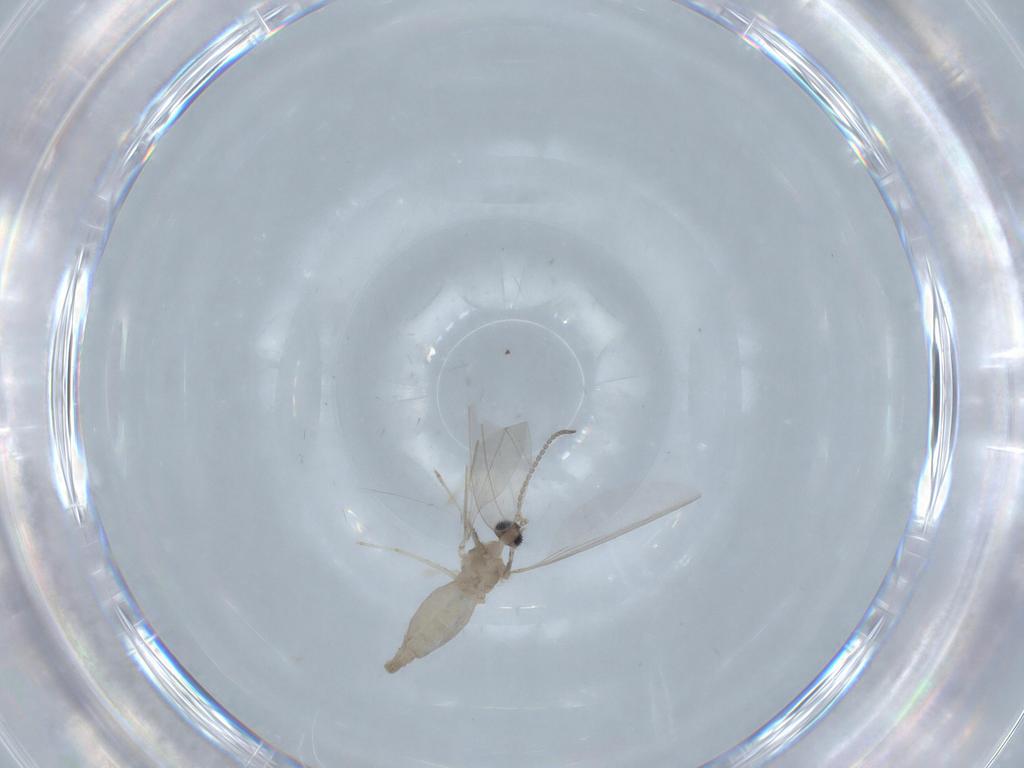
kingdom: Animalia
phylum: Arthropoda
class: Insecta
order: Diptera
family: Cecidomyiidae
